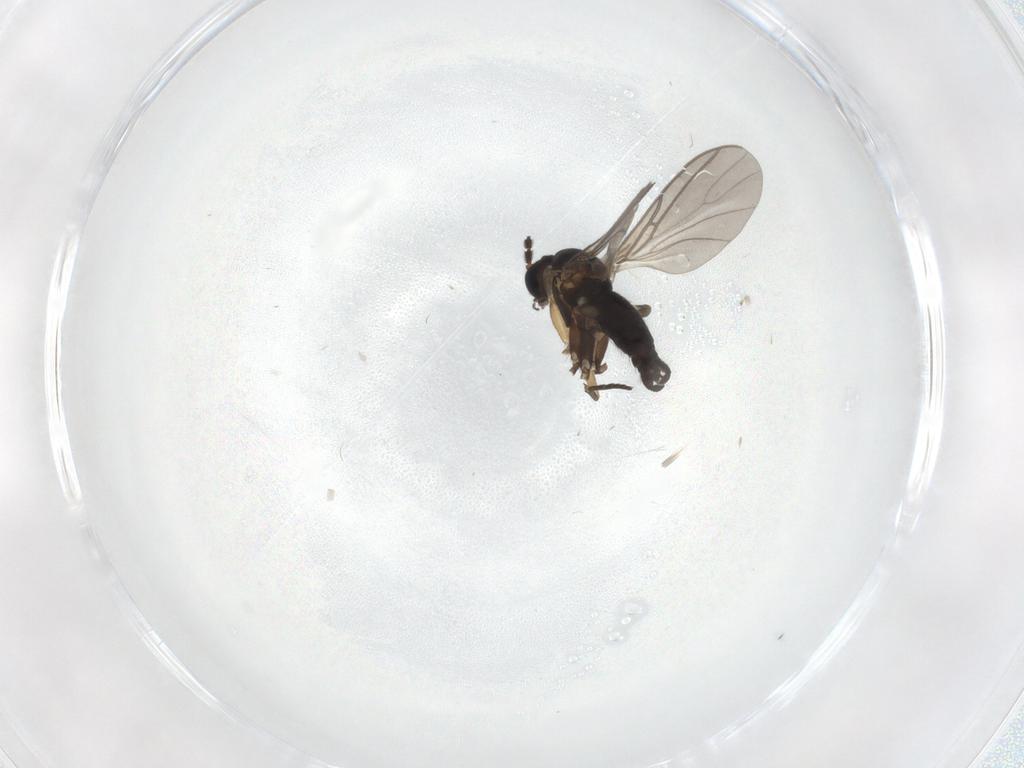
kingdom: Animalia
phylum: Arthropoda
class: Insecta
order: Diptera
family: Sciaridae
